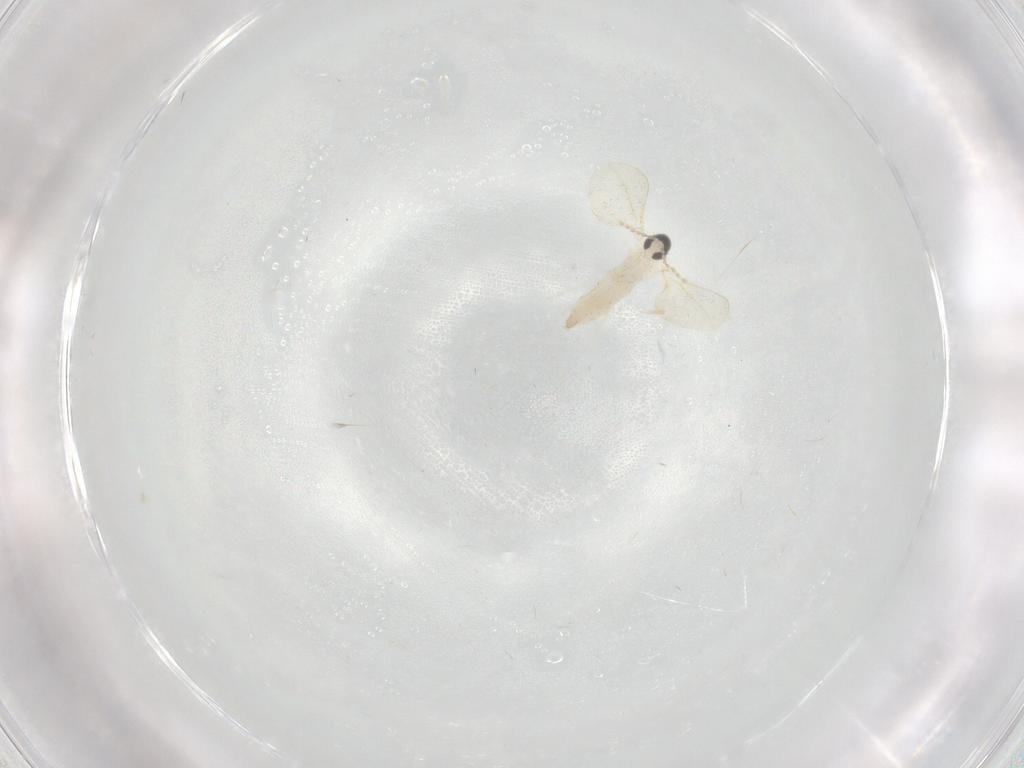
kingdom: Animalia
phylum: Arthropoda
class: Insecta
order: Diptera
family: Cecidomyiidae
